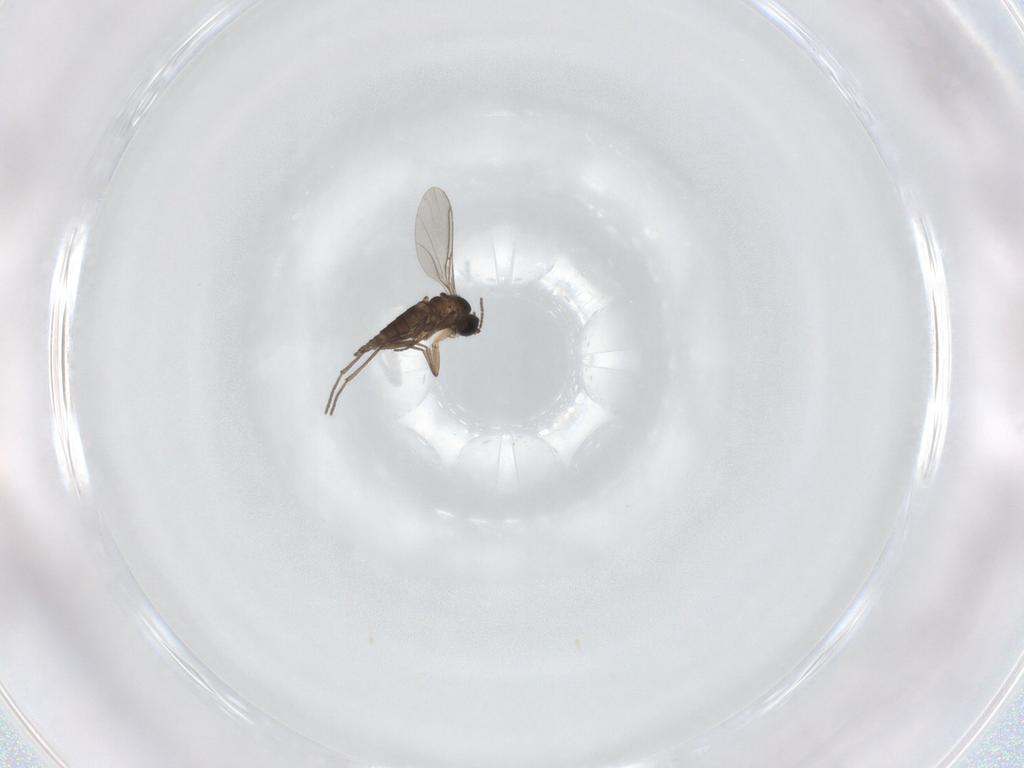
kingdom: Animalia
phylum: Arthropoda
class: Insecta
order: Diptera
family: Sciaridae
